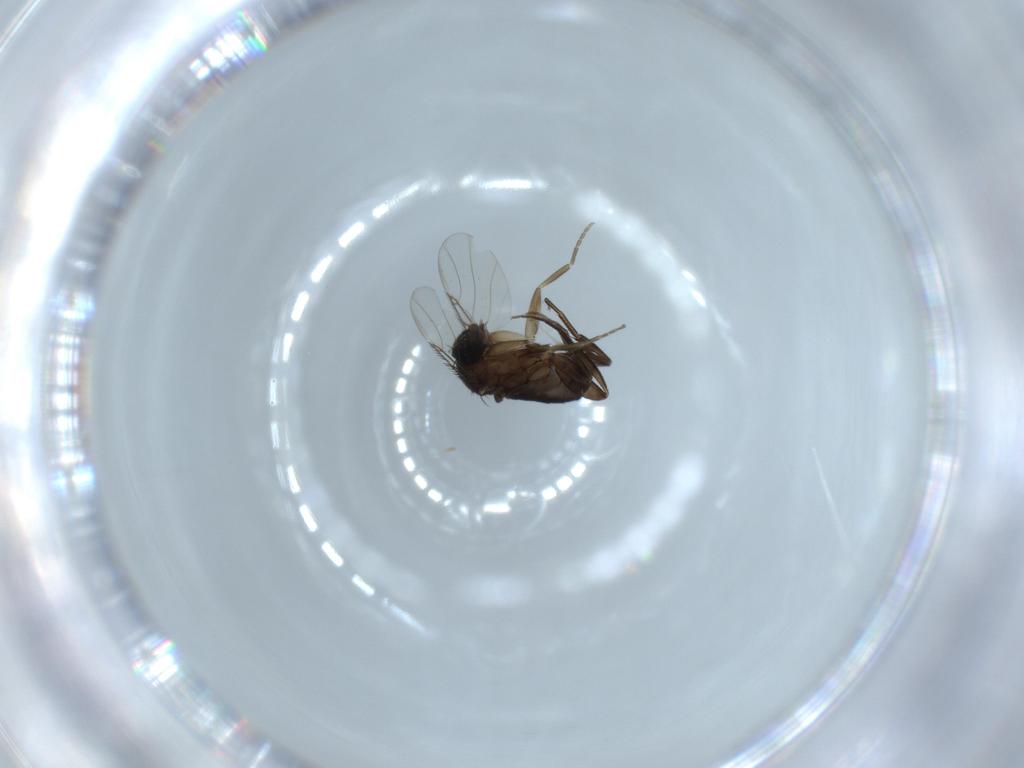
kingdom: Animalia
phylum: Arthropoda
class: Insecta
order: Diptera
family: Phoridae
